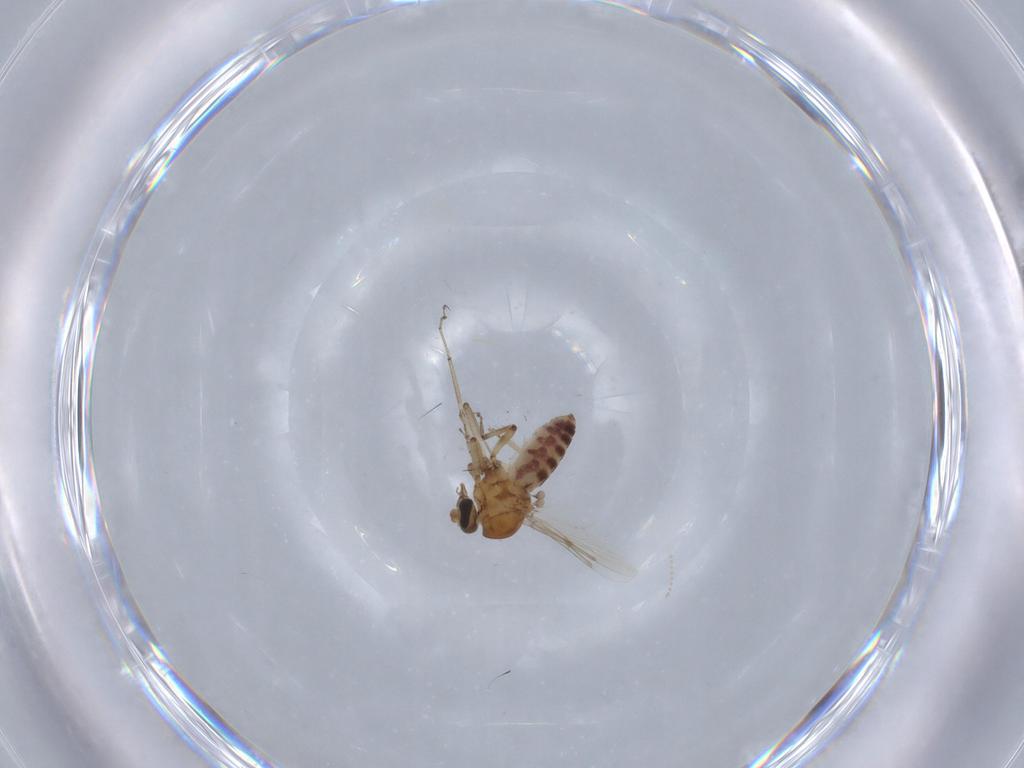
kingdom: Animalia
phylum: Arthropoda
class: Insecta
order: Diptera
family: Ceratopogonidae
